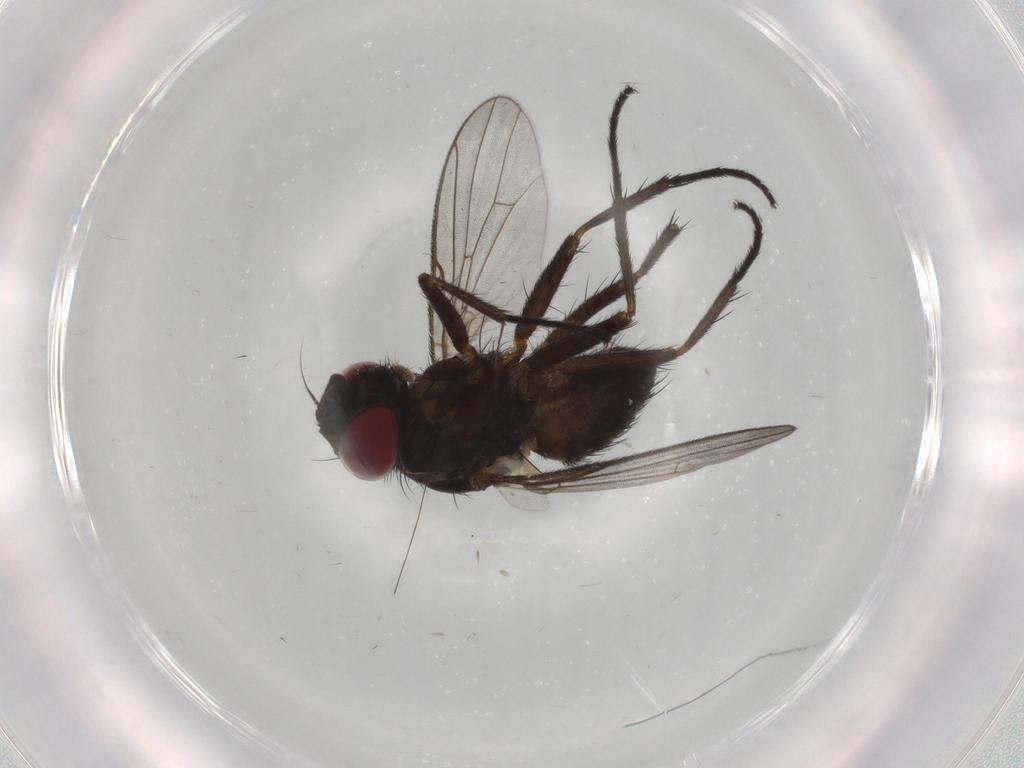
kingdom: Animalia
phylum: Arthropoda
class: Insecta
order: Diptera
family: Muscidae
